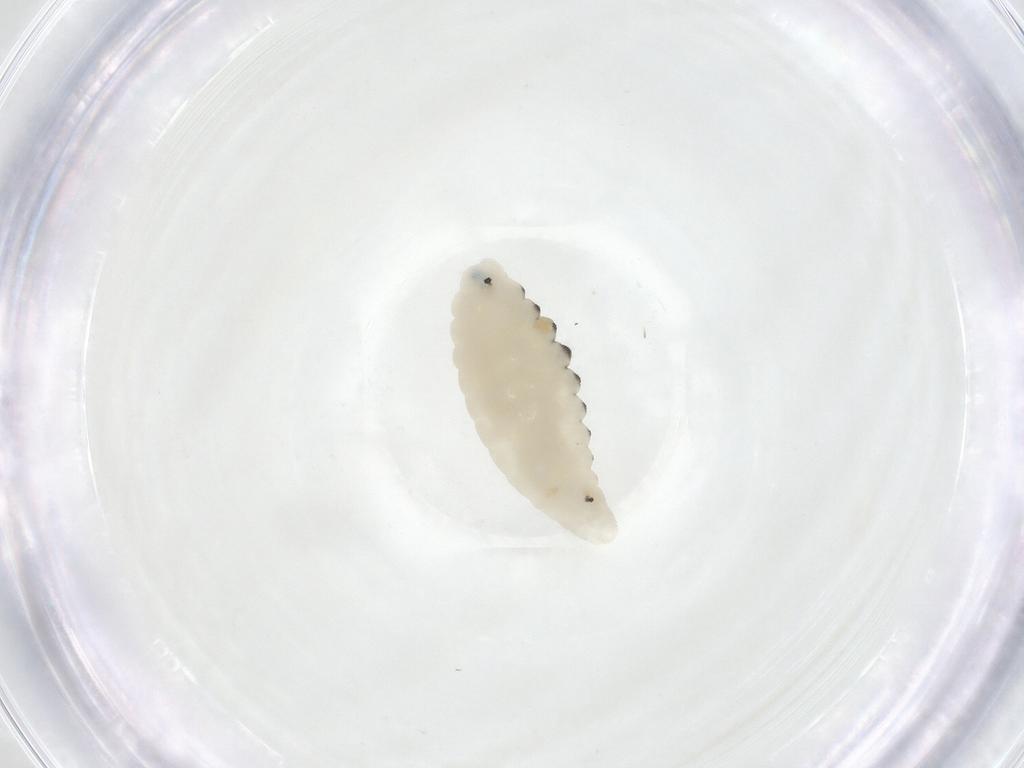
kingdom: Animalia
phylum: Arthropoda
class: Insecta
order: Diptera
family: Fergusoninidae
